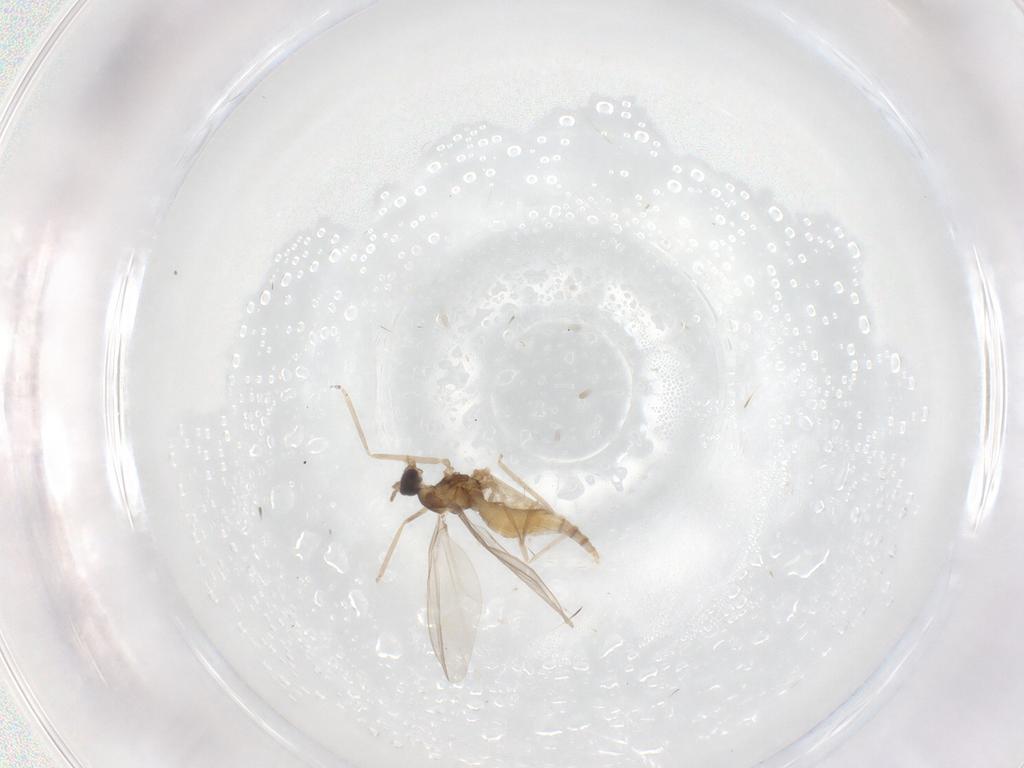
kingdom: Animalia
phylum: Arthropoda
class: Insecta
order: Diptera
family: Cecidomyiidae
